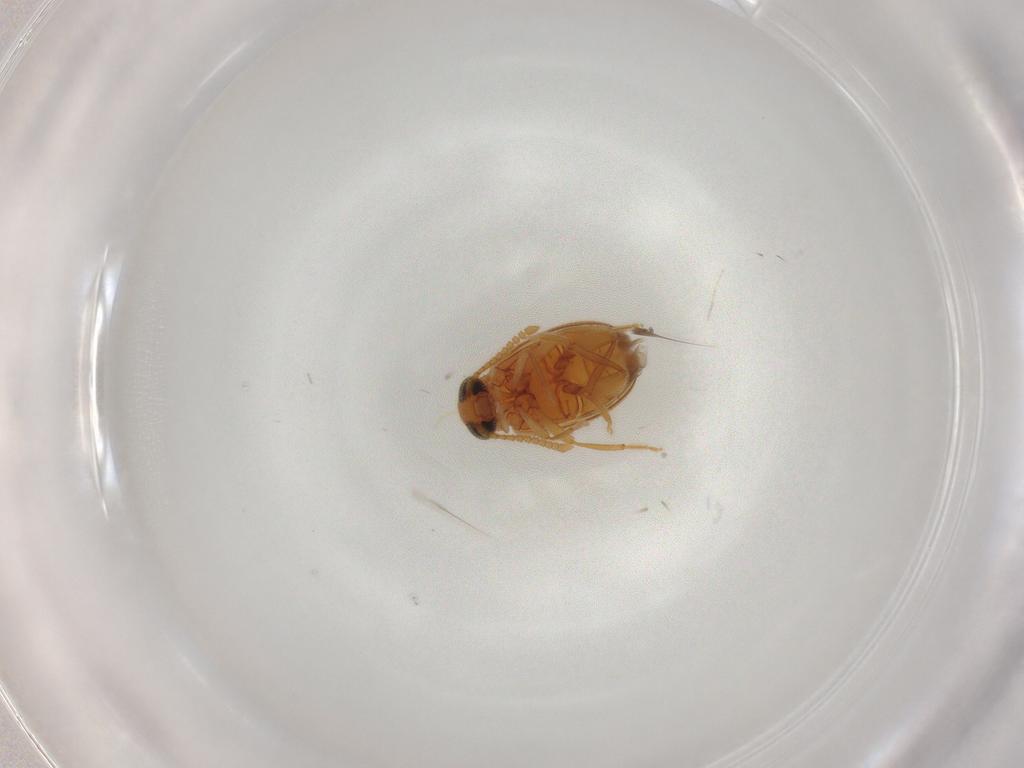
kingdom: Animalia
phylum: Arthropoda
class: Insecta
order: Coleoptera
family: Aderidae
